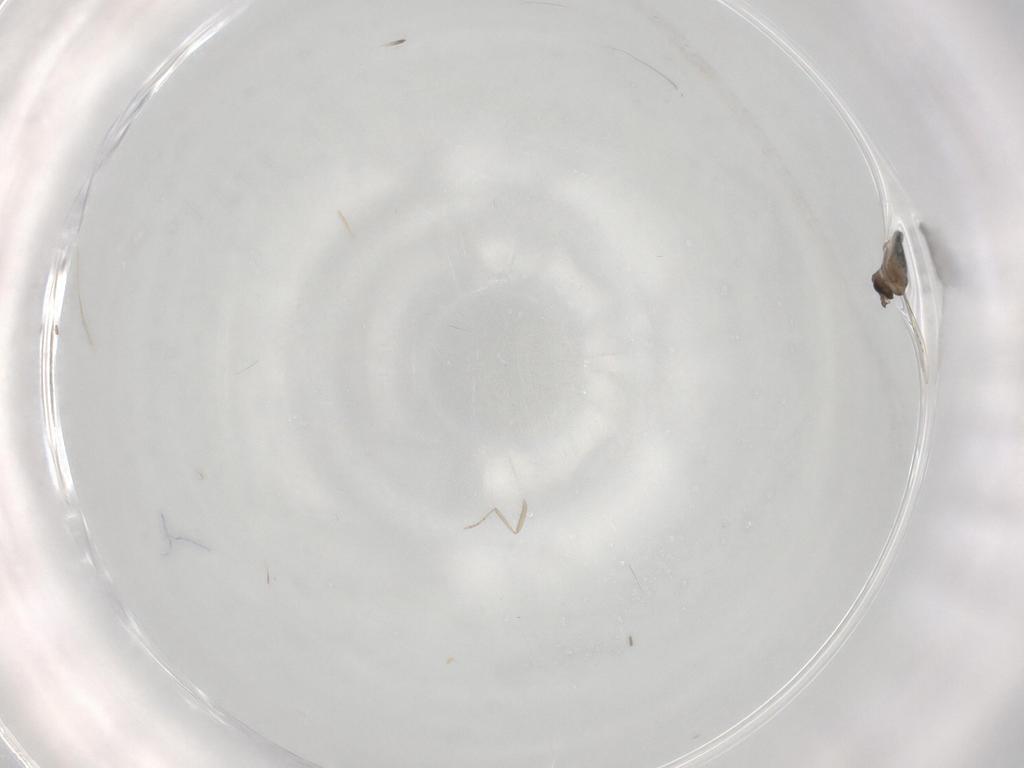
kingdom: Animalia
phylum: Arthropoda
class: Insecta
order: Diptera
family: Cecidomyiidae
